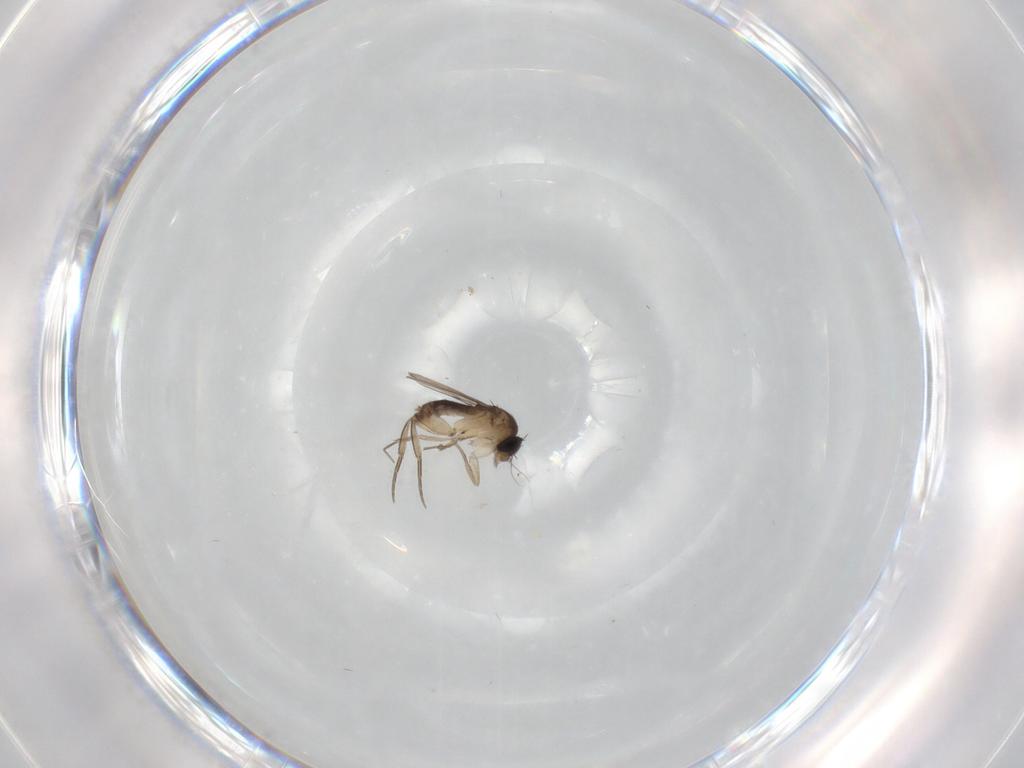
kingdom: Animalia
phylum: Arthropoda
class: Insecta
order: Diptera
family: Phoridae
